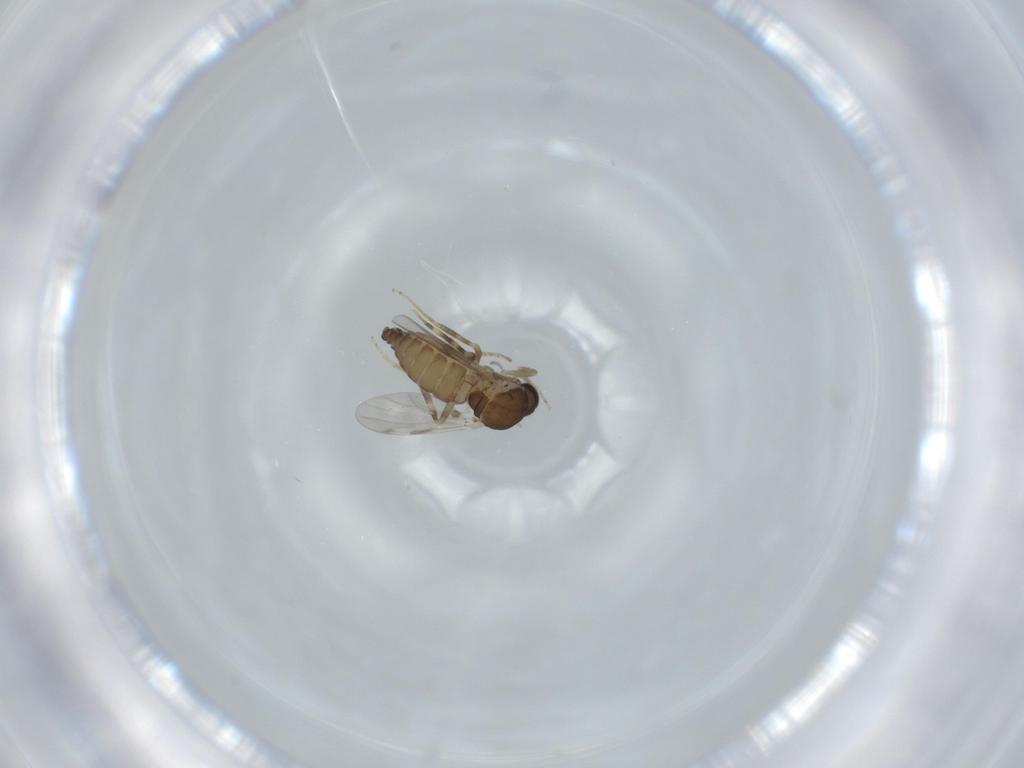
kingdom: Animalia
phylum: Arthropoda
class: Insecta
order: Diptera
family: Ceratopogonidae
